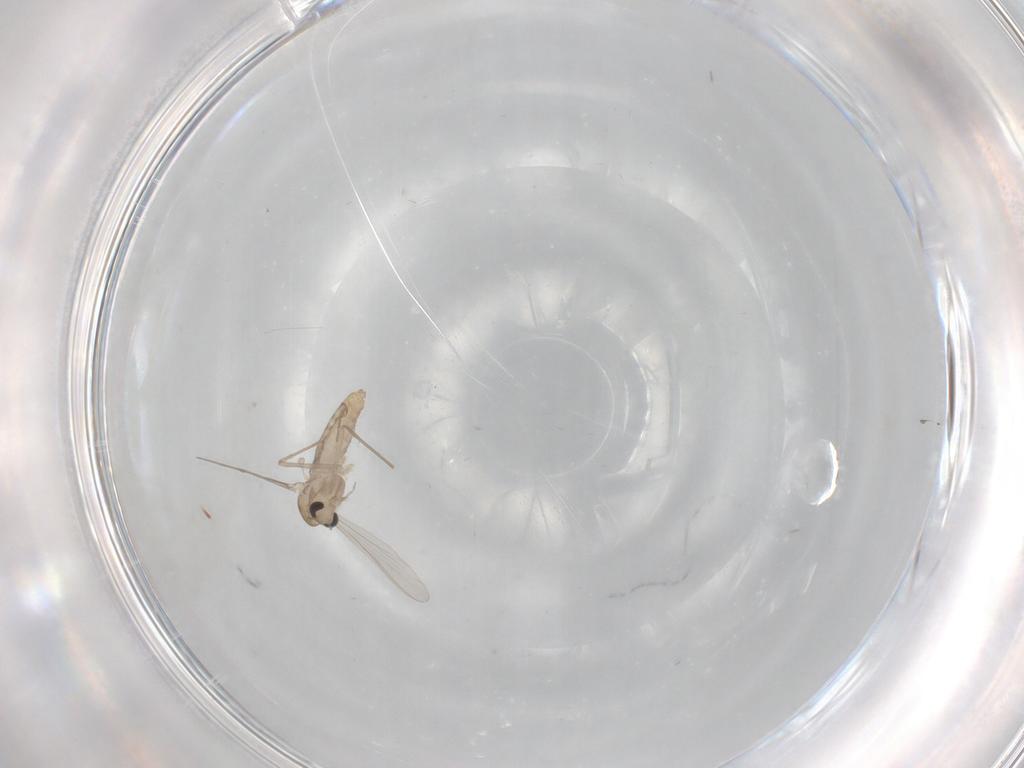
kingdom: Animalia
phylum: Arthropoda
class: Insecta
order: Diptera
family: Chironomidae
